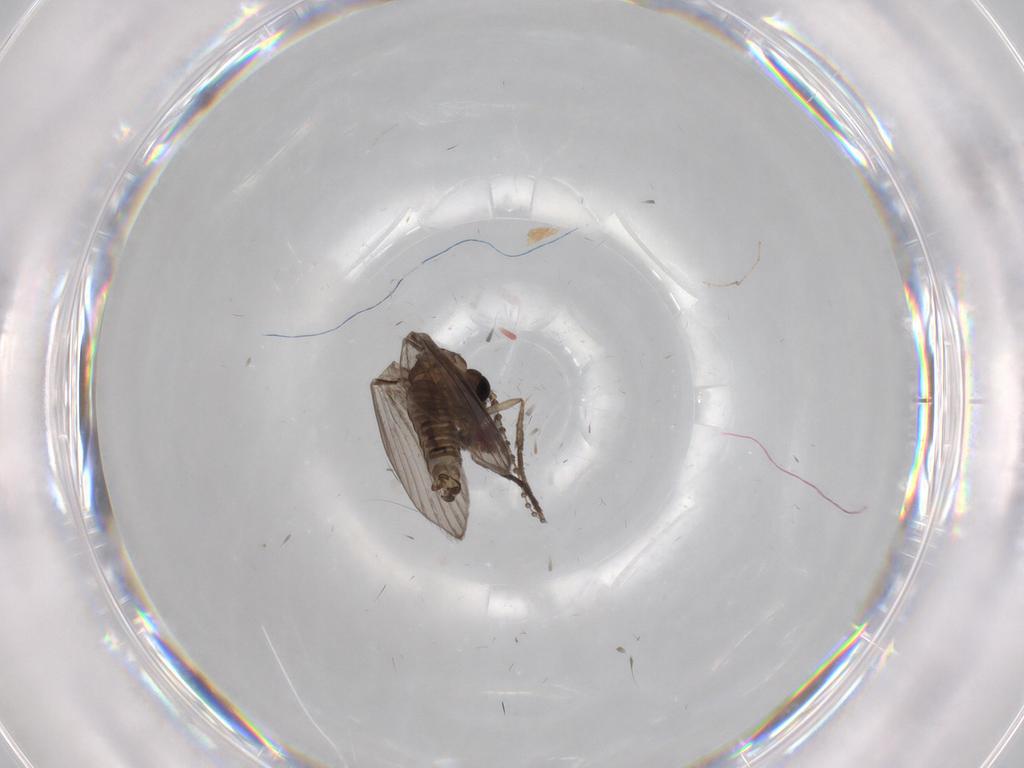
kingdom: Animalia
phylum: Arthropoda
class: Insecta
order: Diptera
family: Psychodidae
